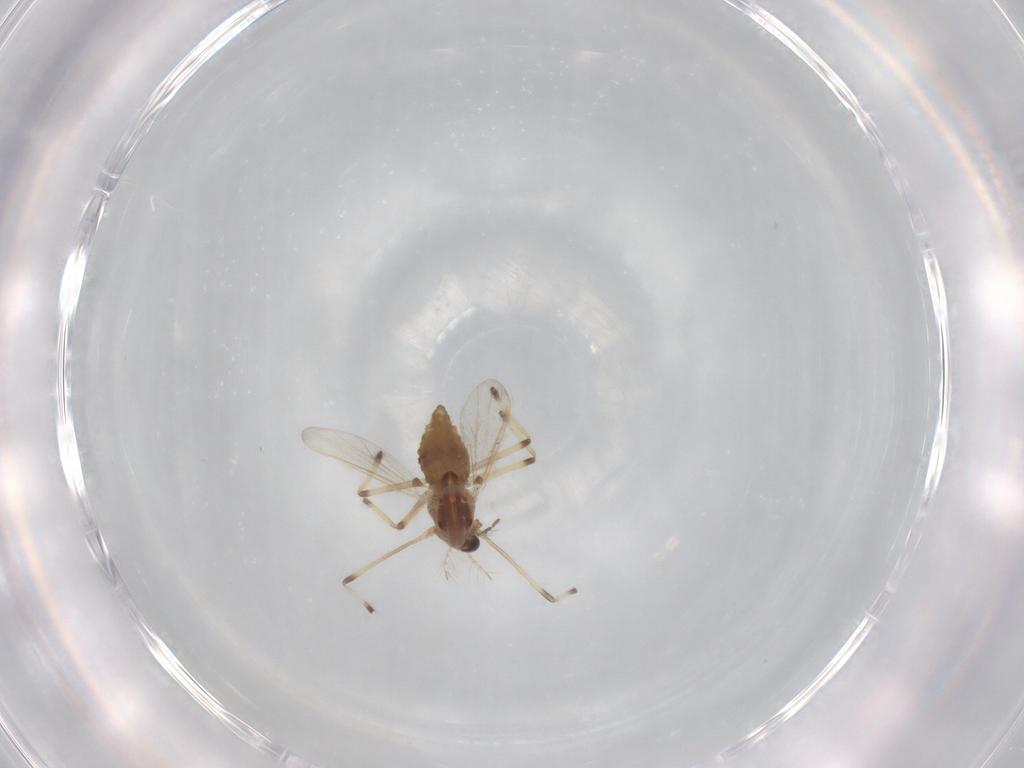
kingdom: Animalia
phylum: Arthropoda
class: Insecta
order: Diptera
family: Chironomidae
